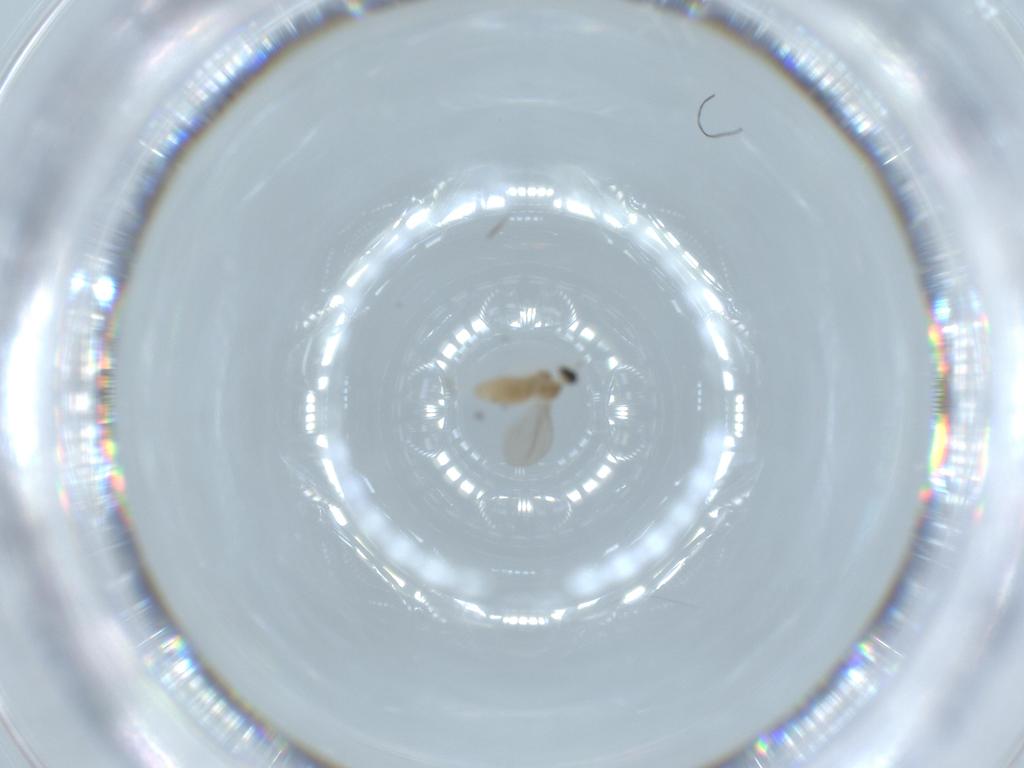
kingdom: Animalia
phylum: Arthropoda
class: Insecta
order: Diptera
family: Cecidomyiidae
